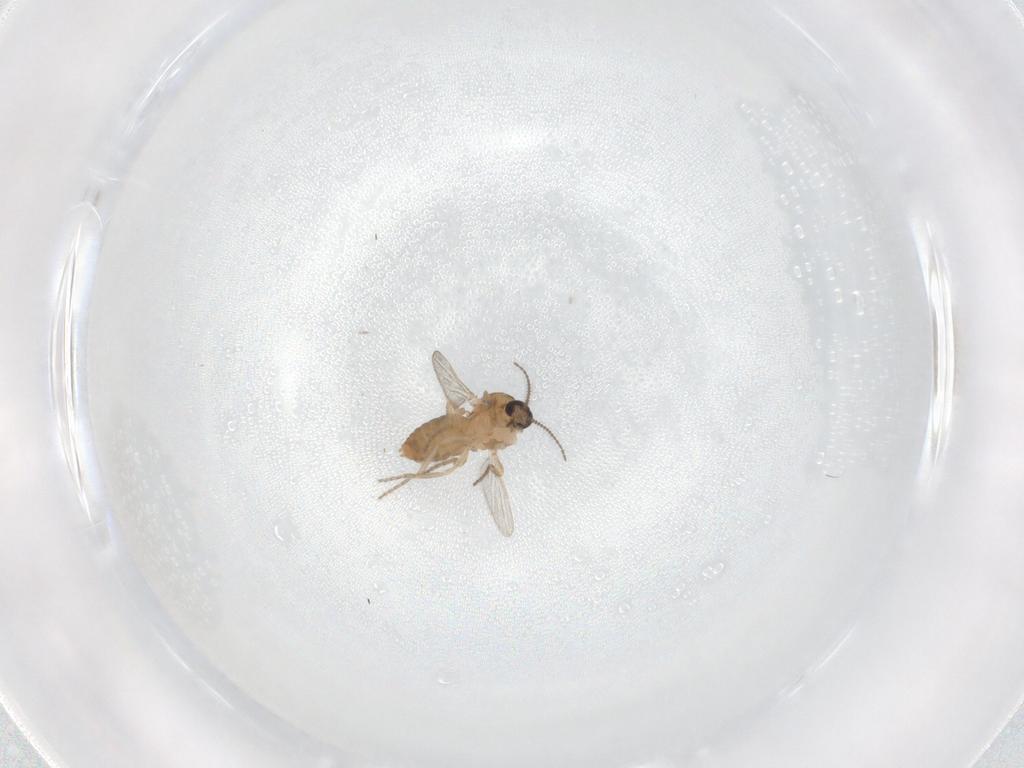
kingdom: Animalia
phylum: Arthropoda
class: Insecta
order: Diptera
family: Ceratopogonidae
